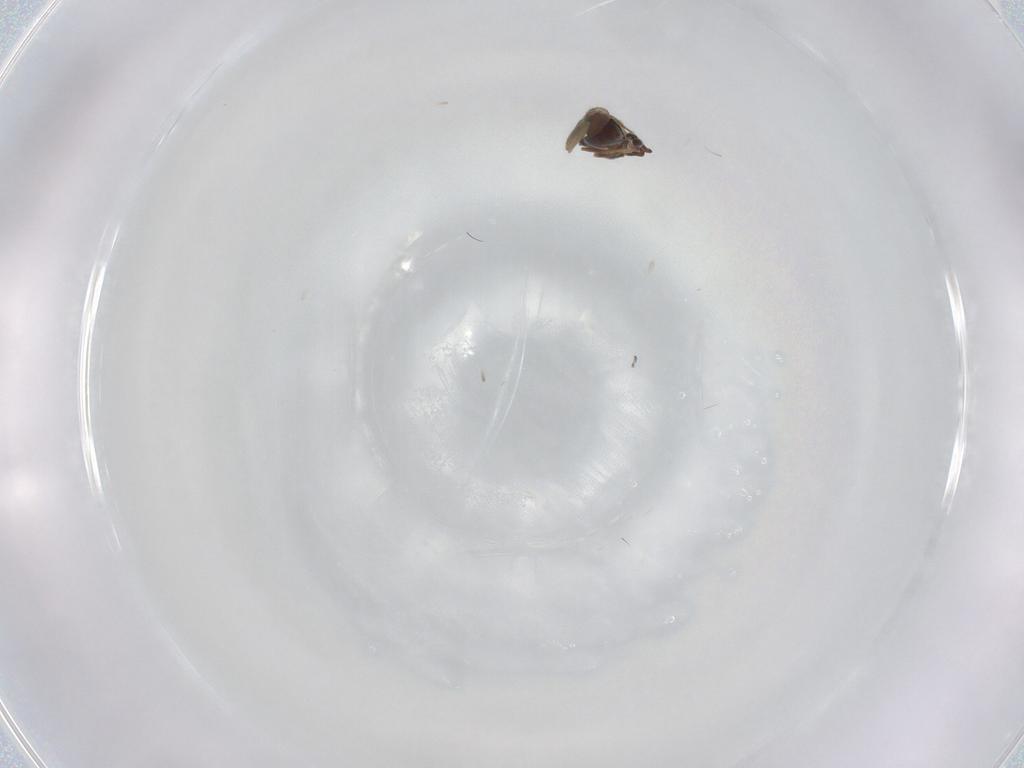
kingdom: Animalia
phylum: Arthropoda
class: Insecta
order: Hymenoptera
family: Ceraphronidae
